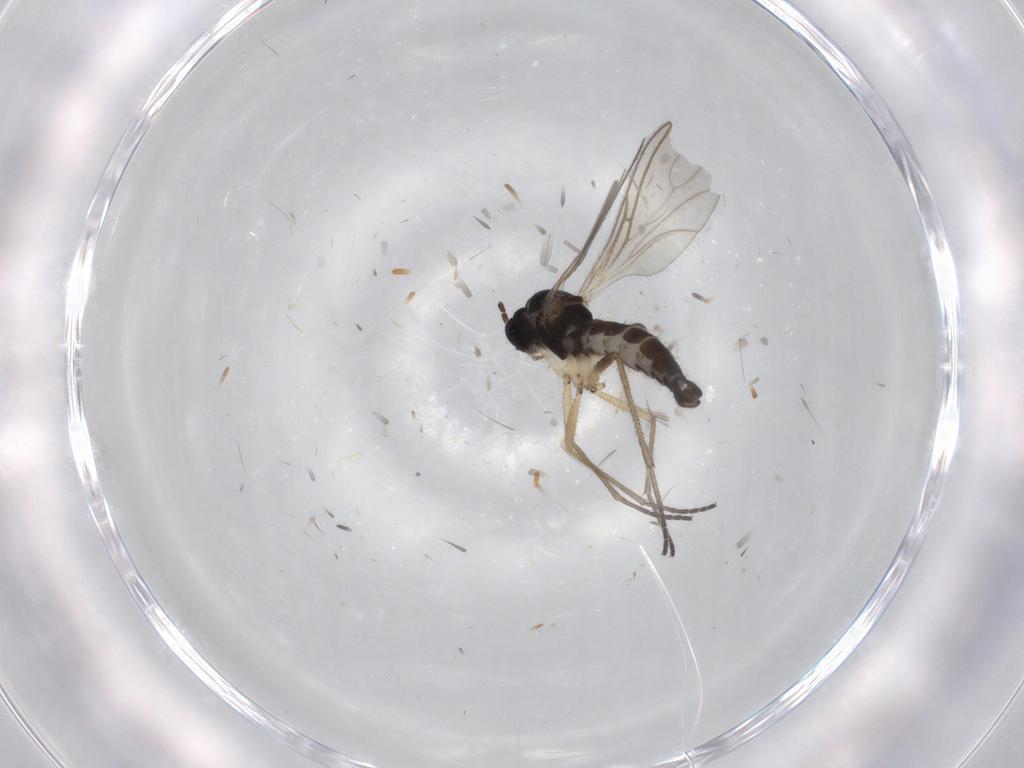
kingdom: Animalia
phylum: Arthropoda
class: Insecta
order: Diptera
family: Sciaridae
